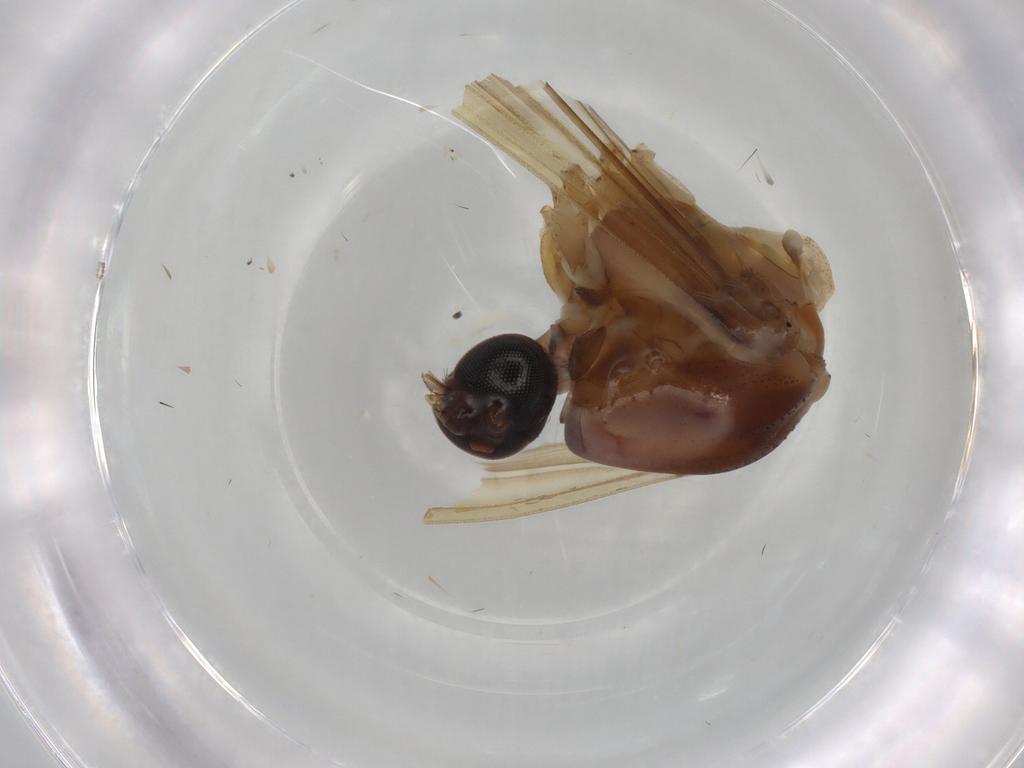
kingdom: Animalia
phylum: Arthropoda
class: Insecta
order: Diptera
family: Culicidae
